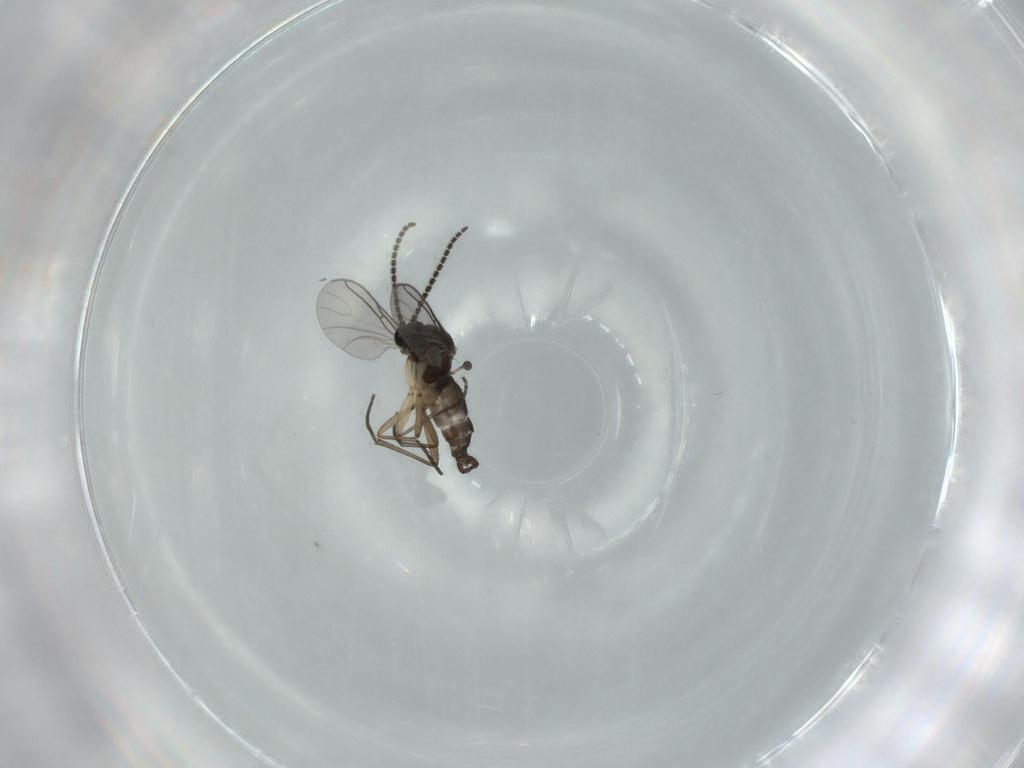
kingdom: Animalia
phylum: Arthropoda
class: Insecta
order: Diptera
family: Sciaridae
